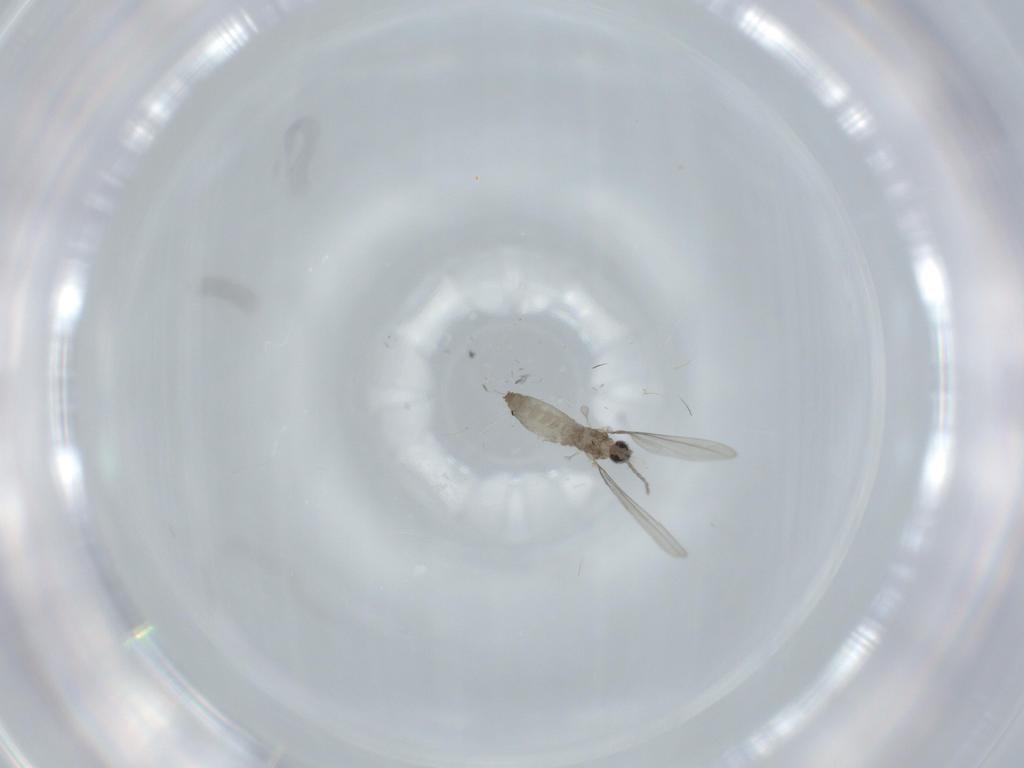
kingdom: Animalia
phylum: Arthropoda
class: Insecta
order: Diptera
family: Sciaridae
